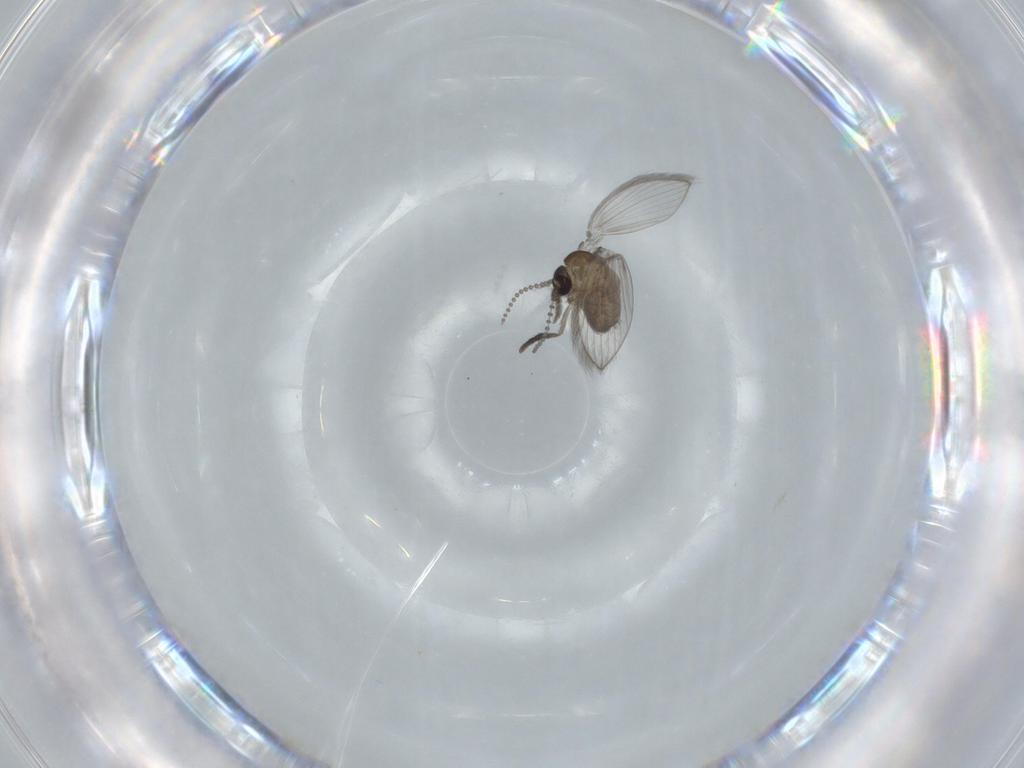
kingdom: Animalia
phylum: Arthropoda
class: Insecta
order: Diptera
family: Psychodidae
